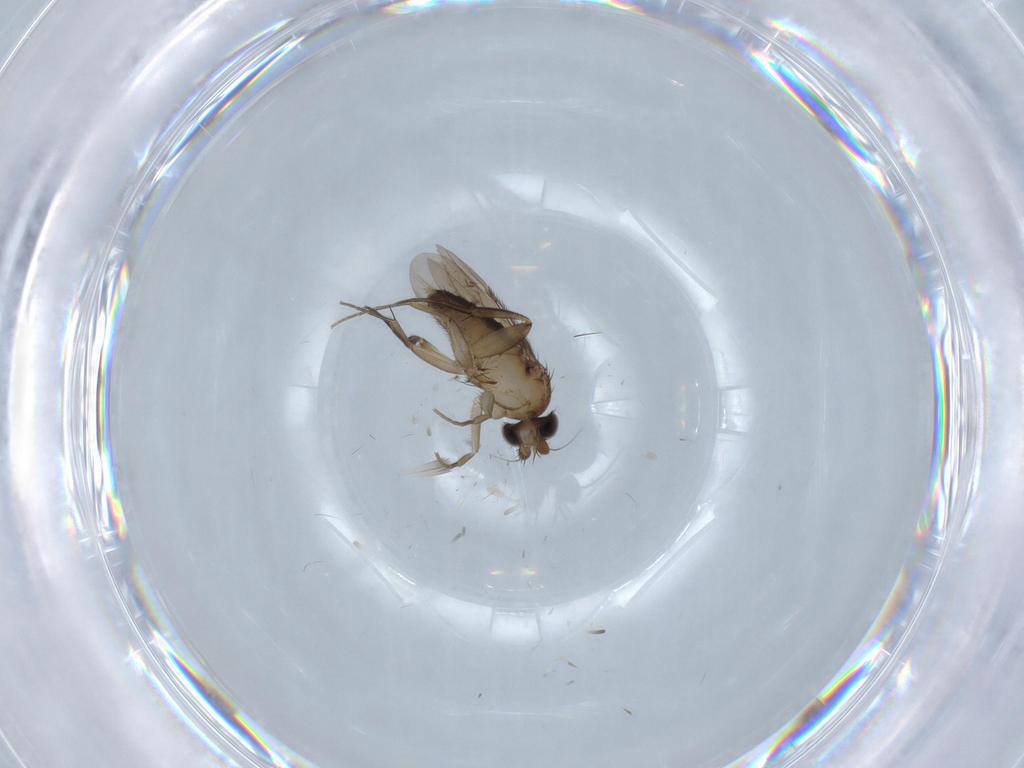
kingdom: Animalia
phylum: Arthropoda
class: Insecta
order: Diptera
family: Phoridae
